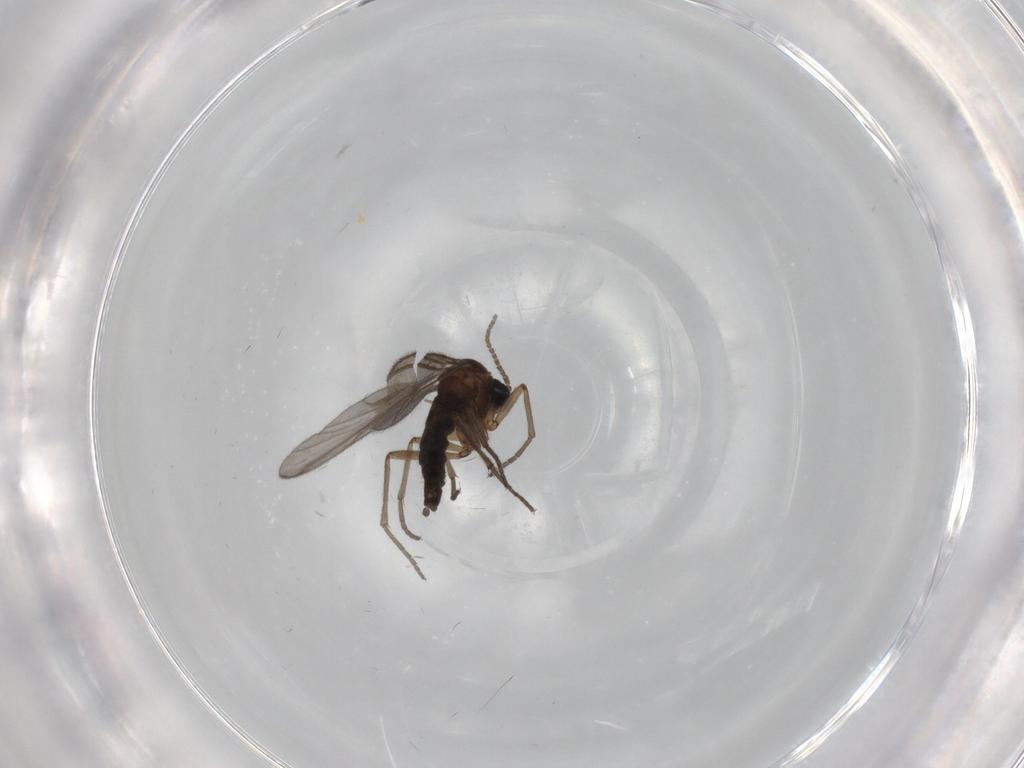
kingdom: Animalia
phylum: Arthropoda
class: Insecta
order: Diptera
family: Sciaridae
